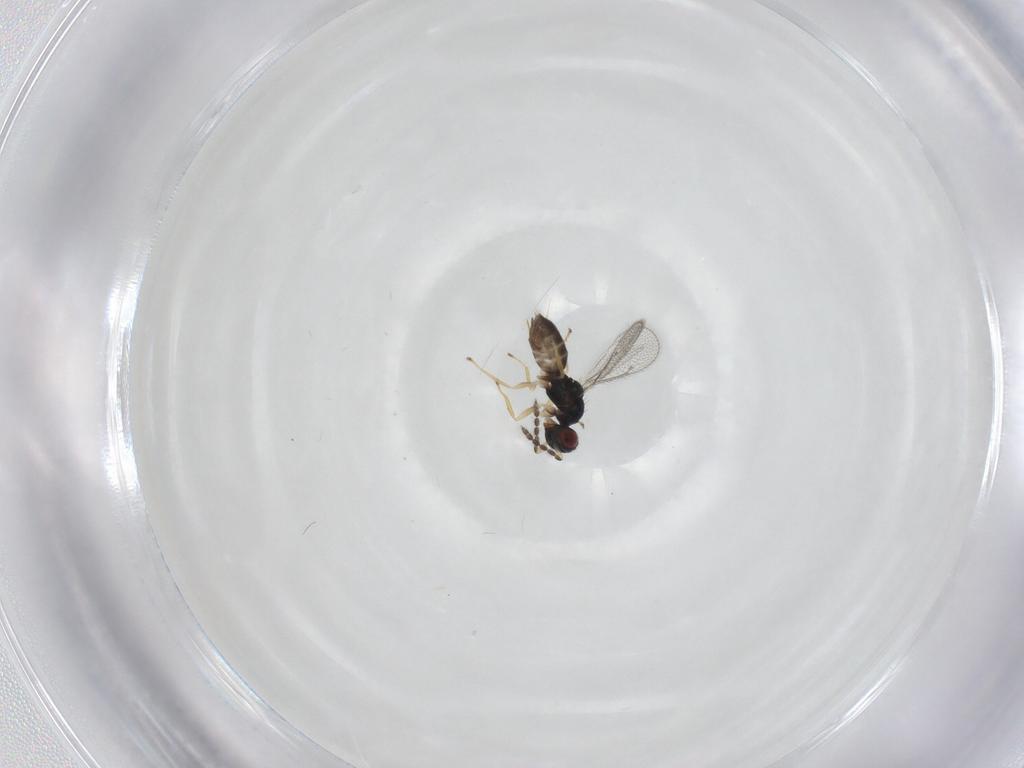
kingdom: Animalia
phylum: Arthropoda
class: Insecta
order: Hymenoptera
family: Eulophidae
